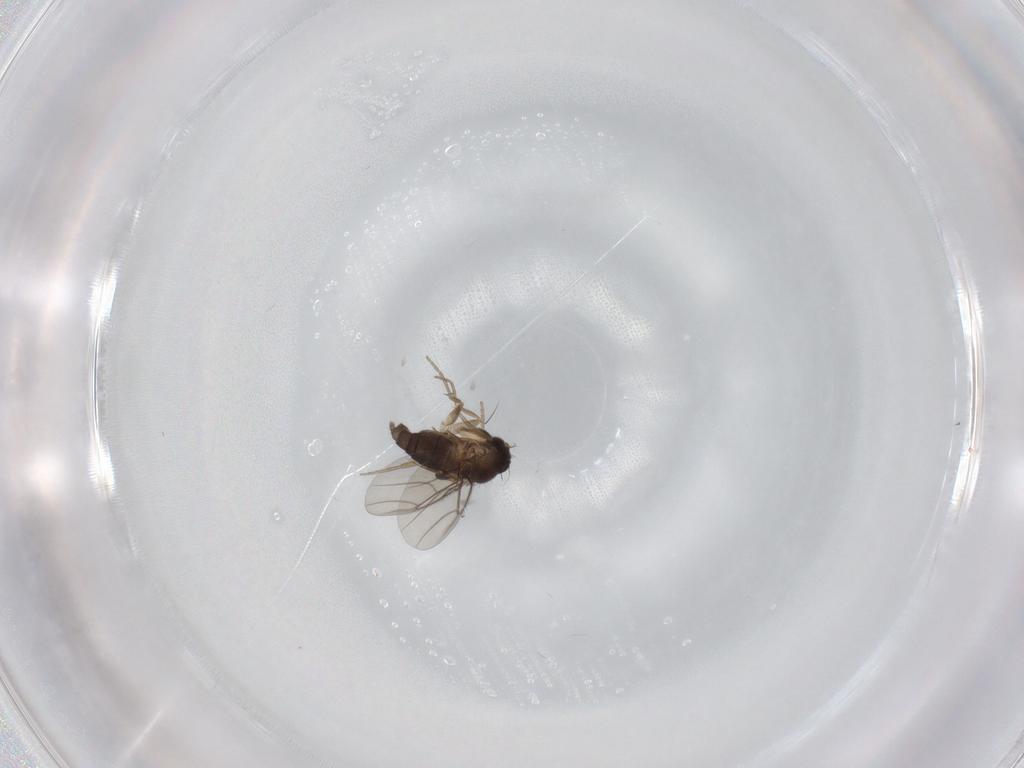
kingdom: Animalia
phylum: Arthropoda
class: Insecta
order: Diptera
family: Phoridae
